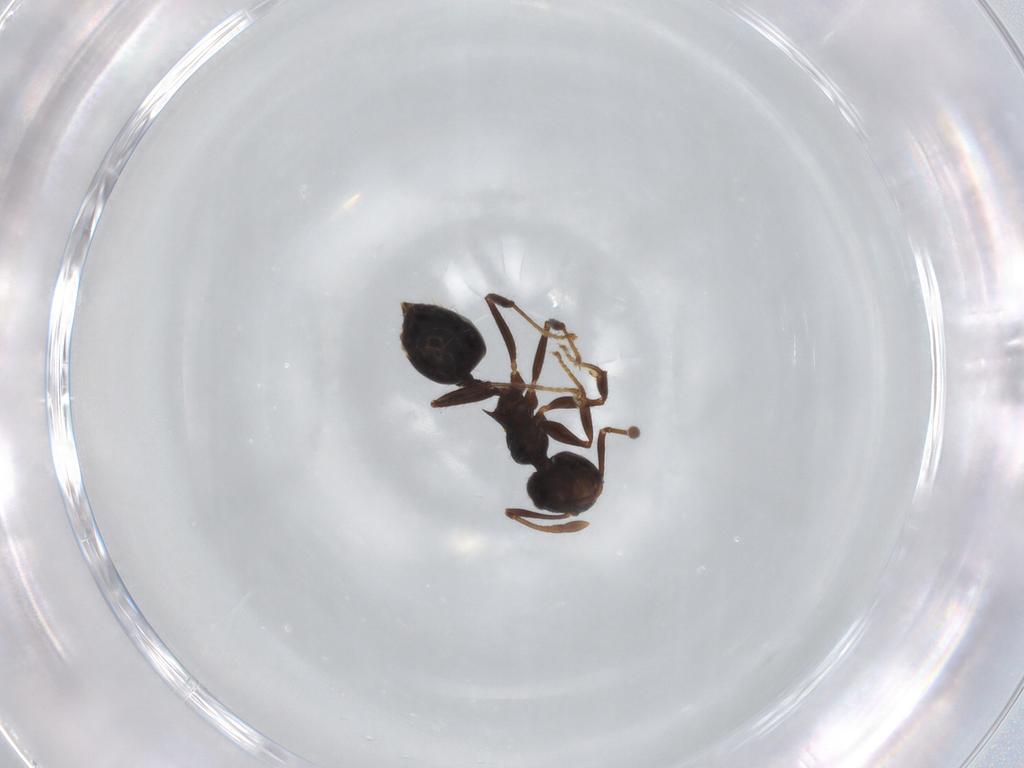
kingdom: Animalia
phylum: Arthropoda
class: Insecta
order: Hymenoptera
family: Formicidae
